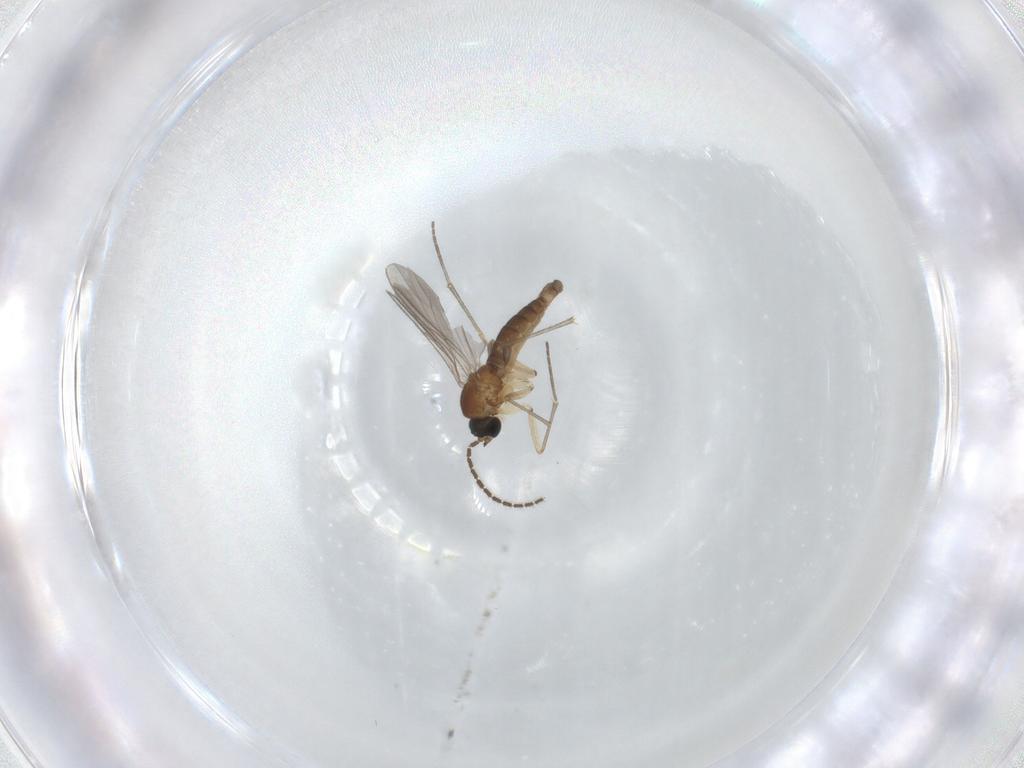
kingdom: Animalia
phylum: Arthropoda
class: Insecta
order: Diptera
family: Sciaridae
